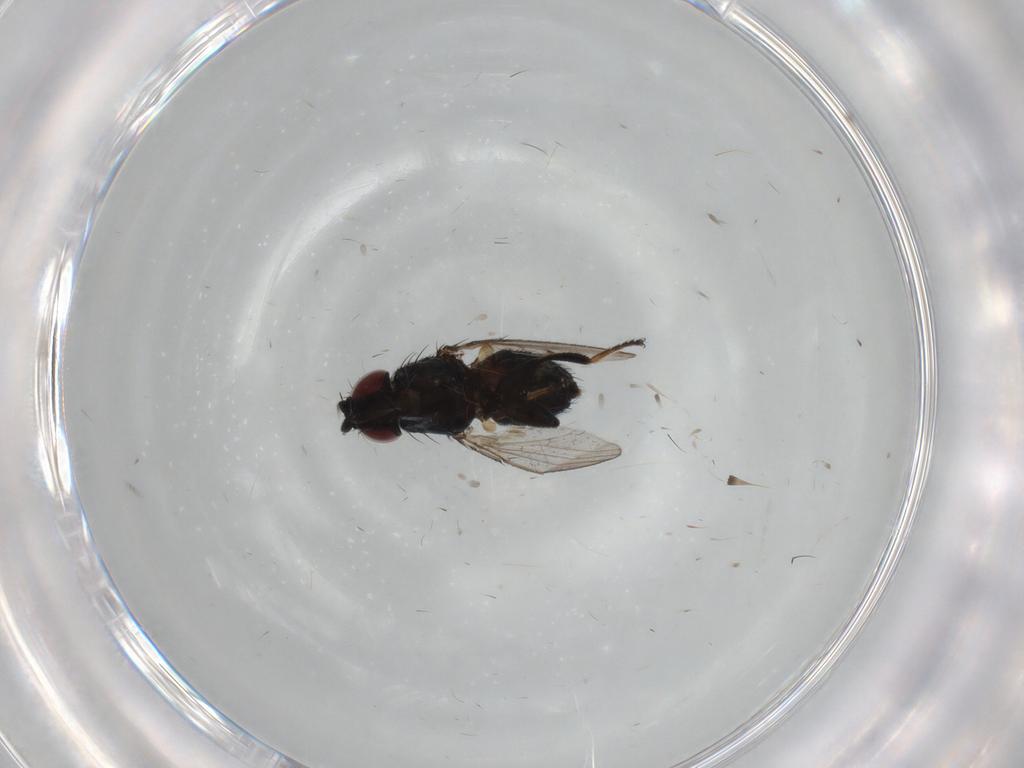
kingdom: Animalia
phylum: Arthropoda
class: Insecta
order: Diptera
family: Milichiidae
